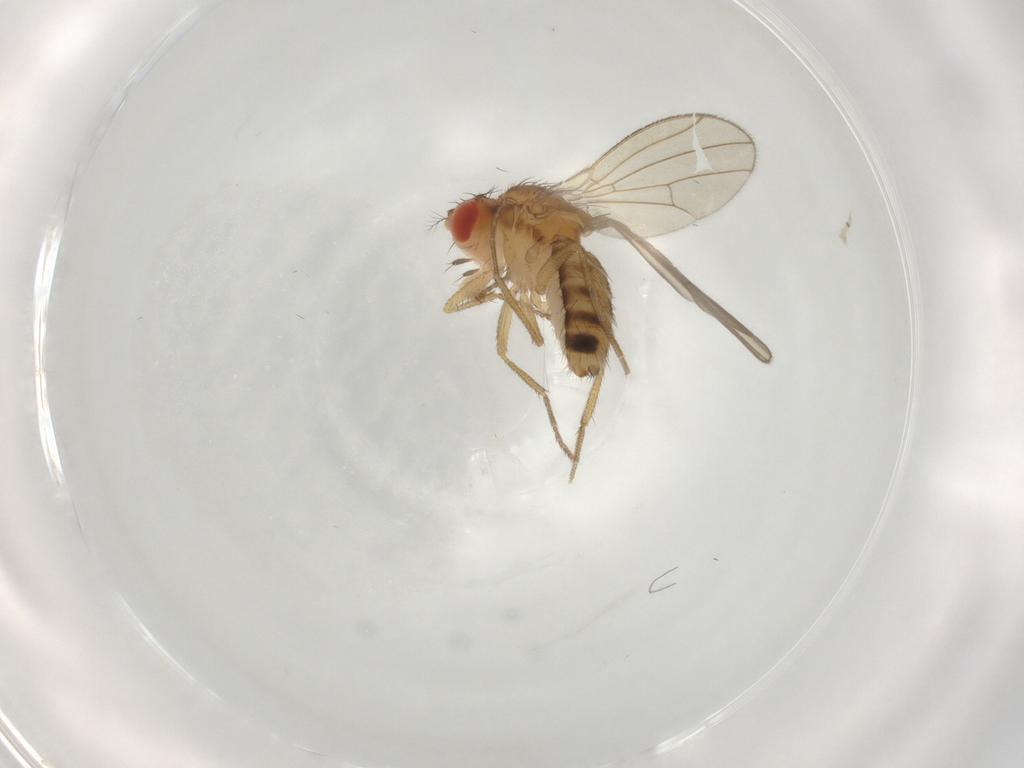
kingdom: Animalia
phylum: Arthropoda
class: Insecta
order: Diptera
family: Drosophilidae
